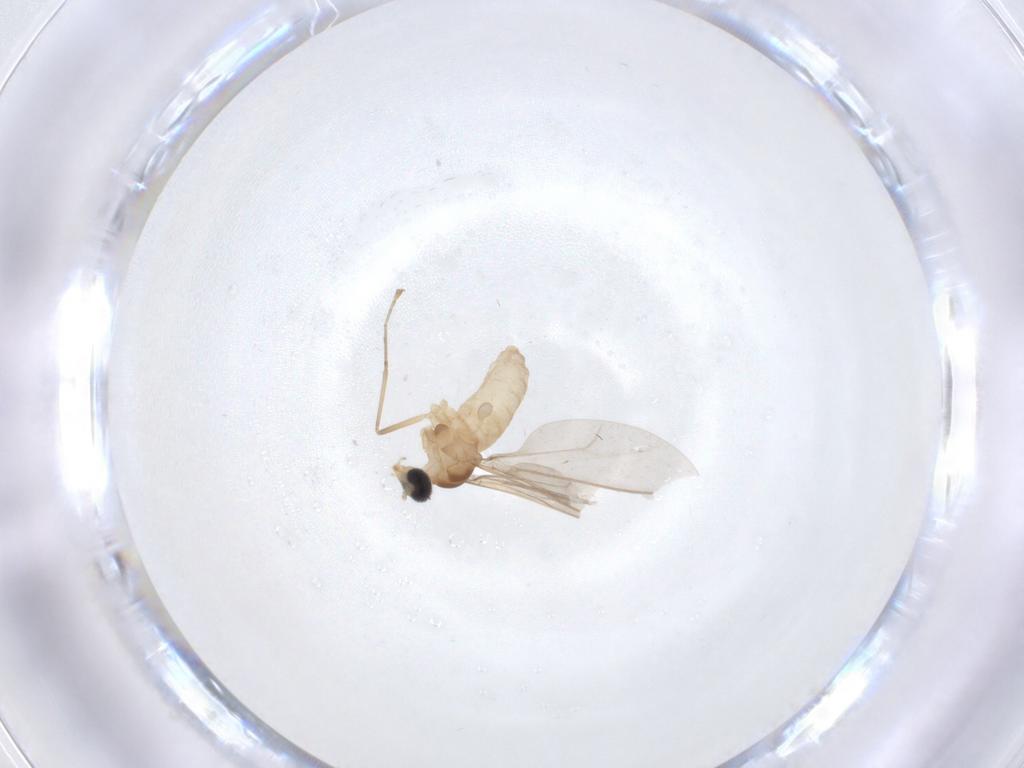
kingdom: Animalia
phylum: Arthropoda
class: Insecta
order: Diptera
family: Cecidomyiidae
